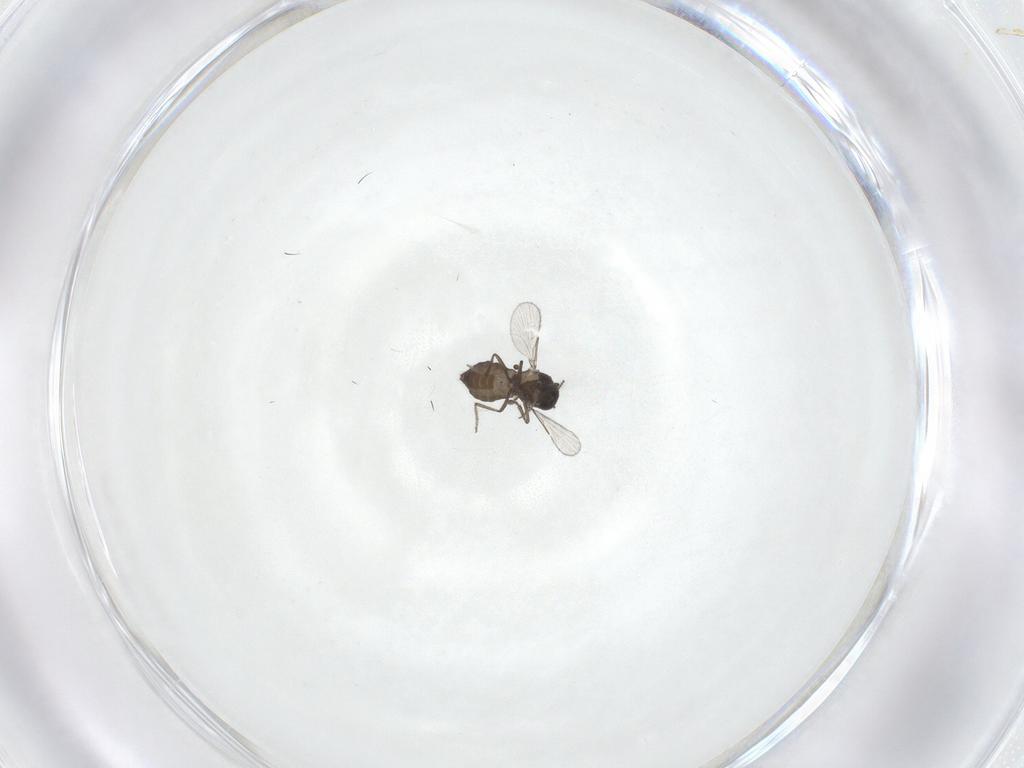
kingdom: Animalia
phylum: Arthropoda
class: Insecta
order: Diptera
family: Ceratopogonidae
